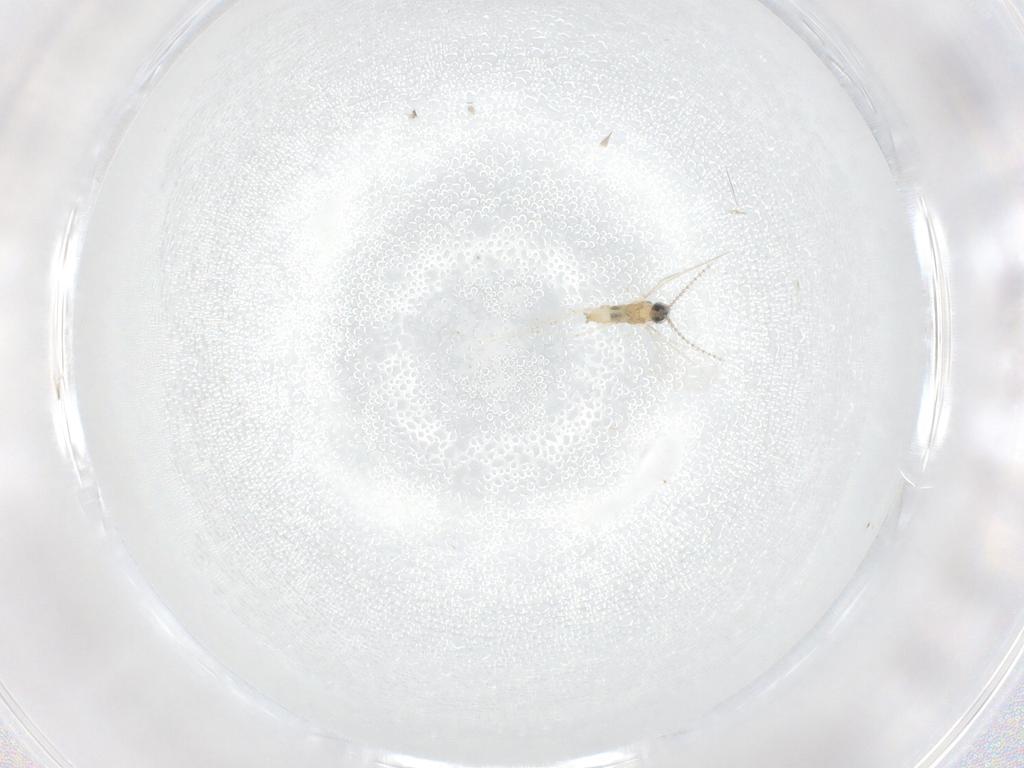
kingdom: Animalia
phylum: Arthropoda
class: Insecta
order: Diptera
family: Cecidomyiidae
